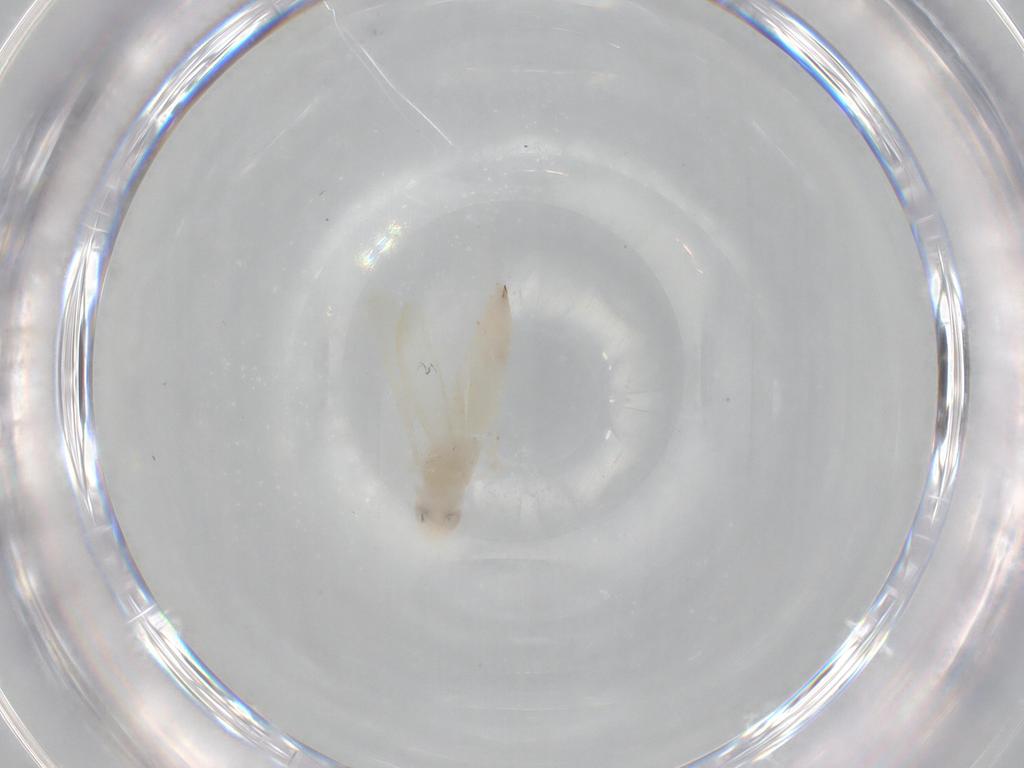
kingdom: Animalia
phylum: Arthropoda
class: Insecta
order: Hemiptera
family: Cicadellidae
